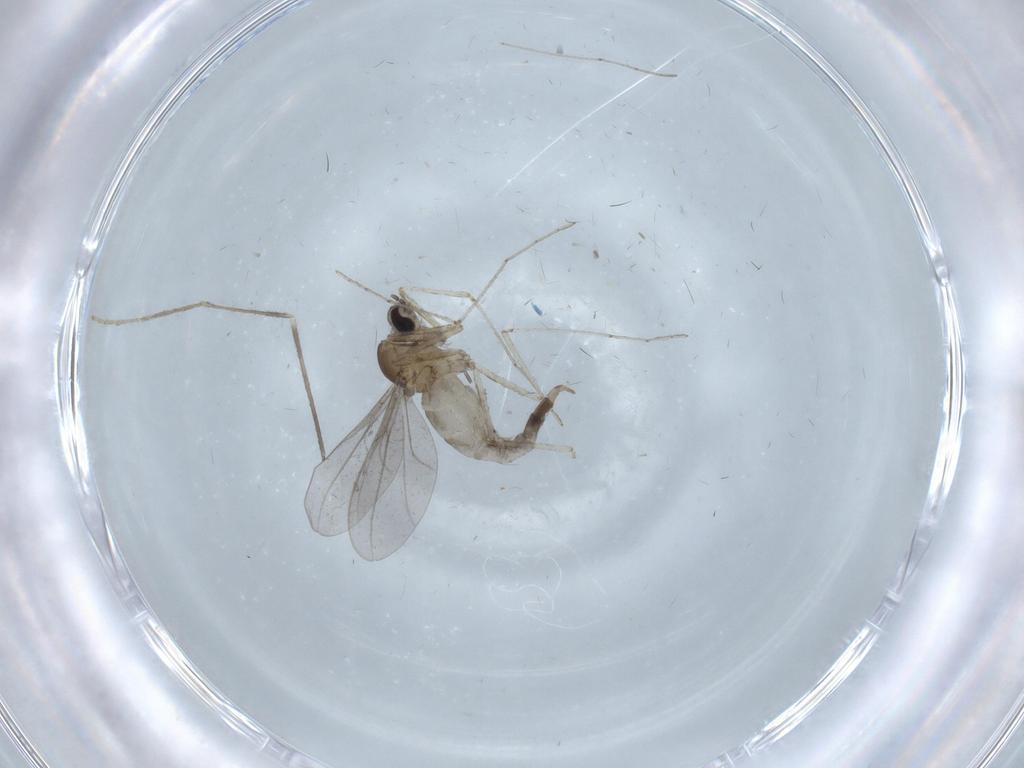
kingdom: Animalia
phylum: Arthropoda
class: Insecta
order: Diptera
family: Limoniidae
